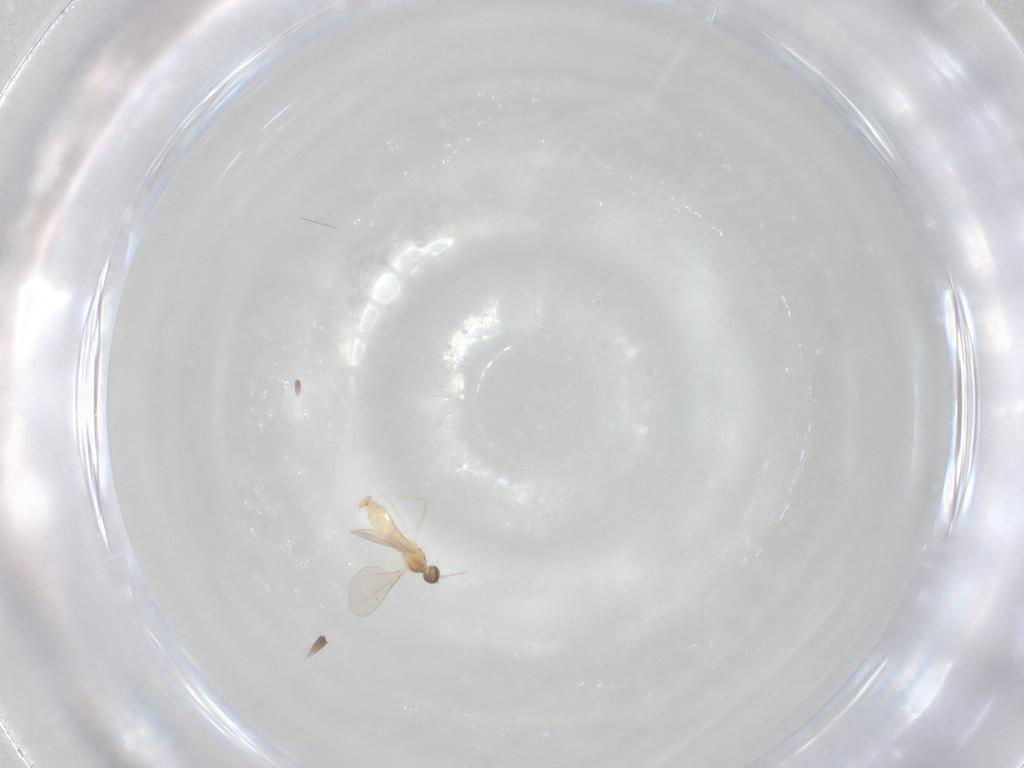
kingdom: Animalia
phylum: Arthropoda
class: Insecta
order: Diptera
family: Cecidomyiidae
